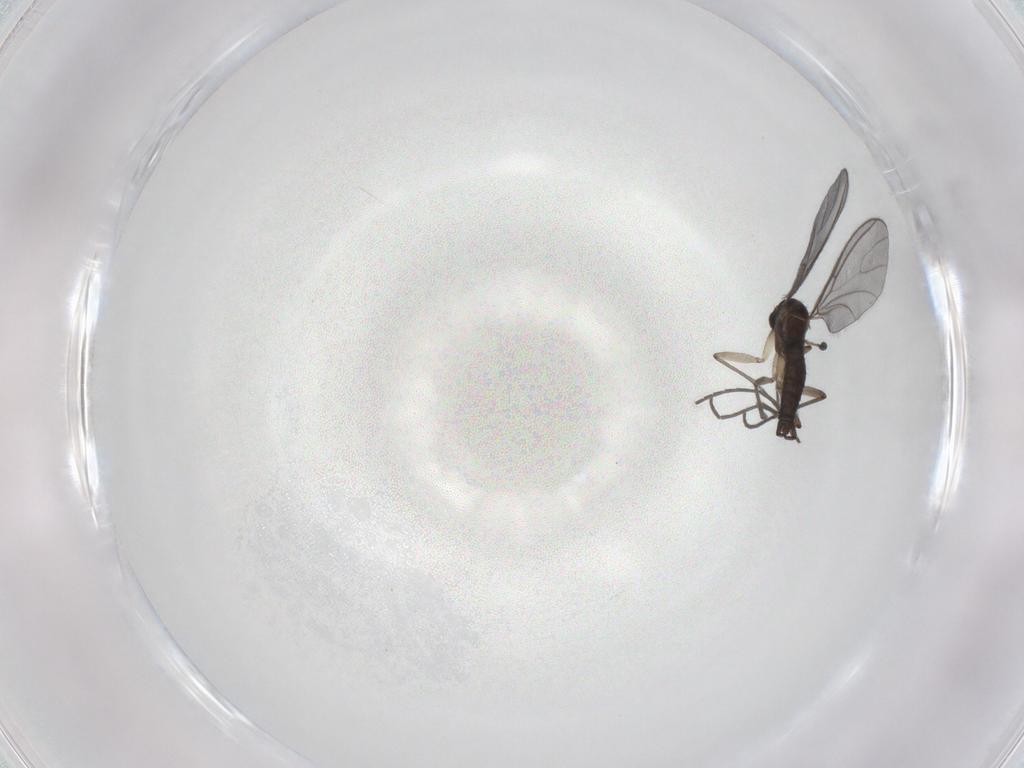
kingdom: Animalia
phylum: Arthropoda
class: Insecta
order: Diptera
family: Sciaridae
